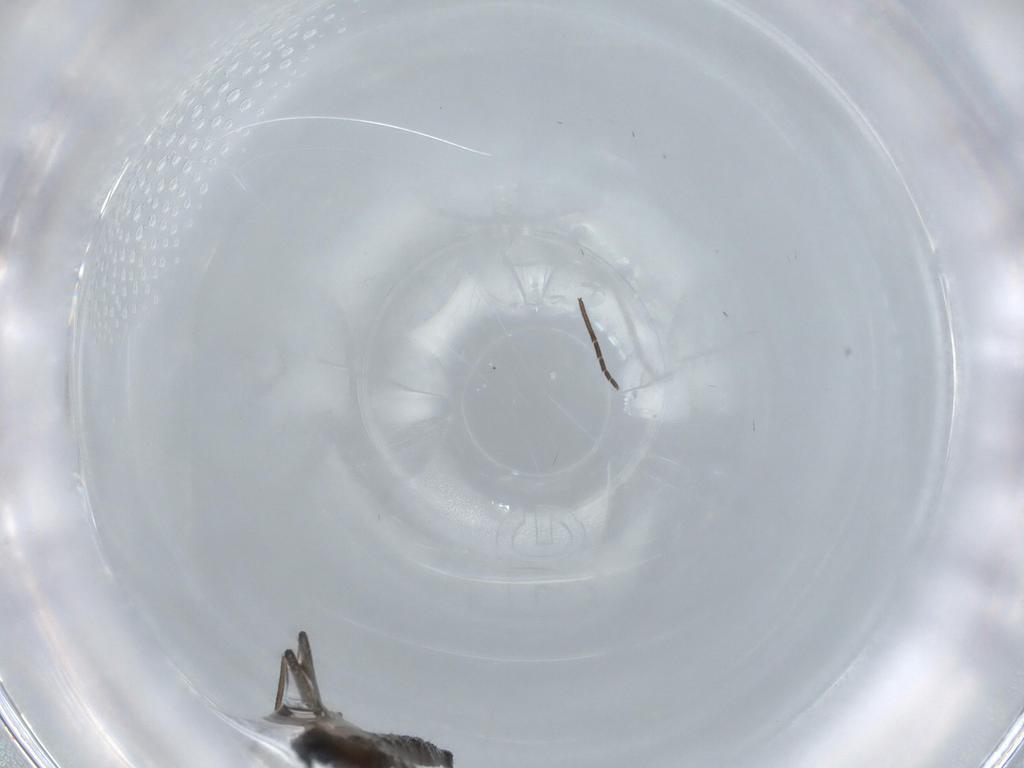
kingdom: Animalia
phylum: Arthropoda
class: Insecta
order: Diptera
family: Sciaridae
